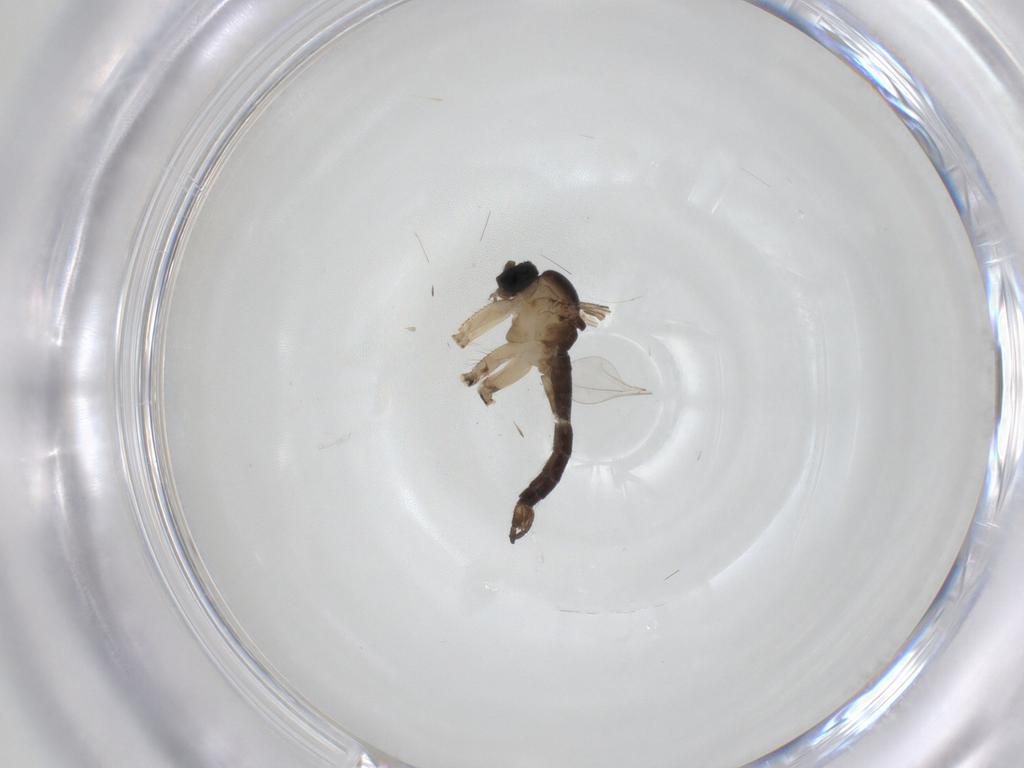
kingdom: Animalia
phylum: Arthropoda
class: Insecta
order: Diptera
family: Sciaridae
